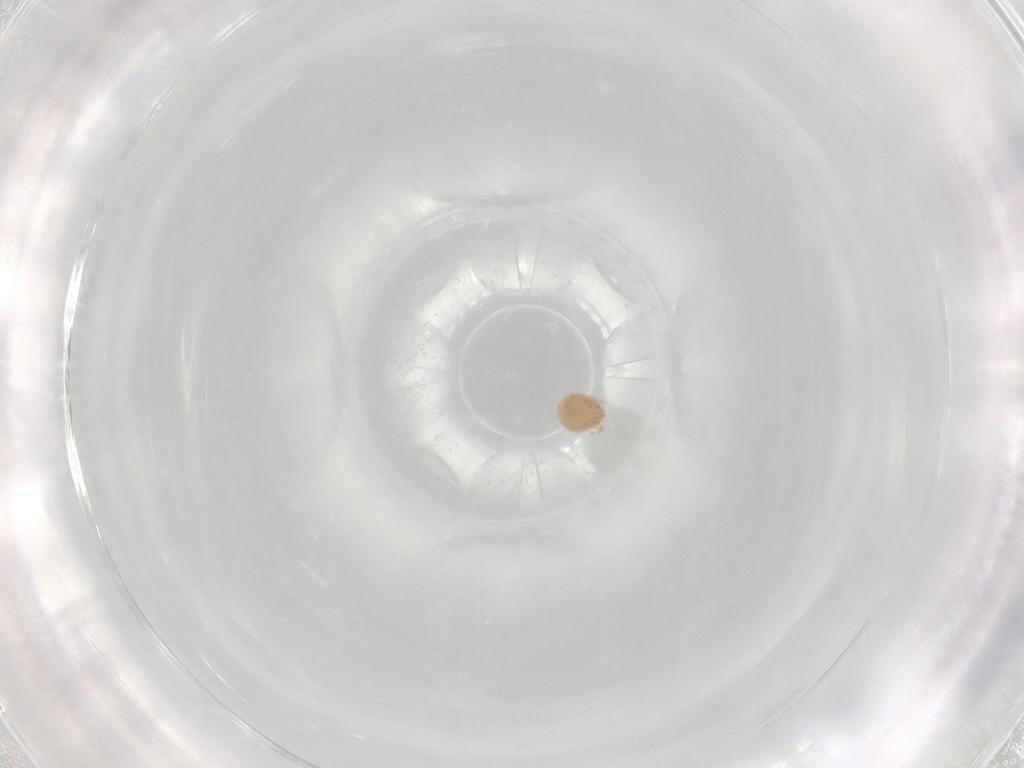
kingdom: Animalia
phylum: Arthropoda
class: Arachnida
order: Trombidiformes
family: Lebertiidae
